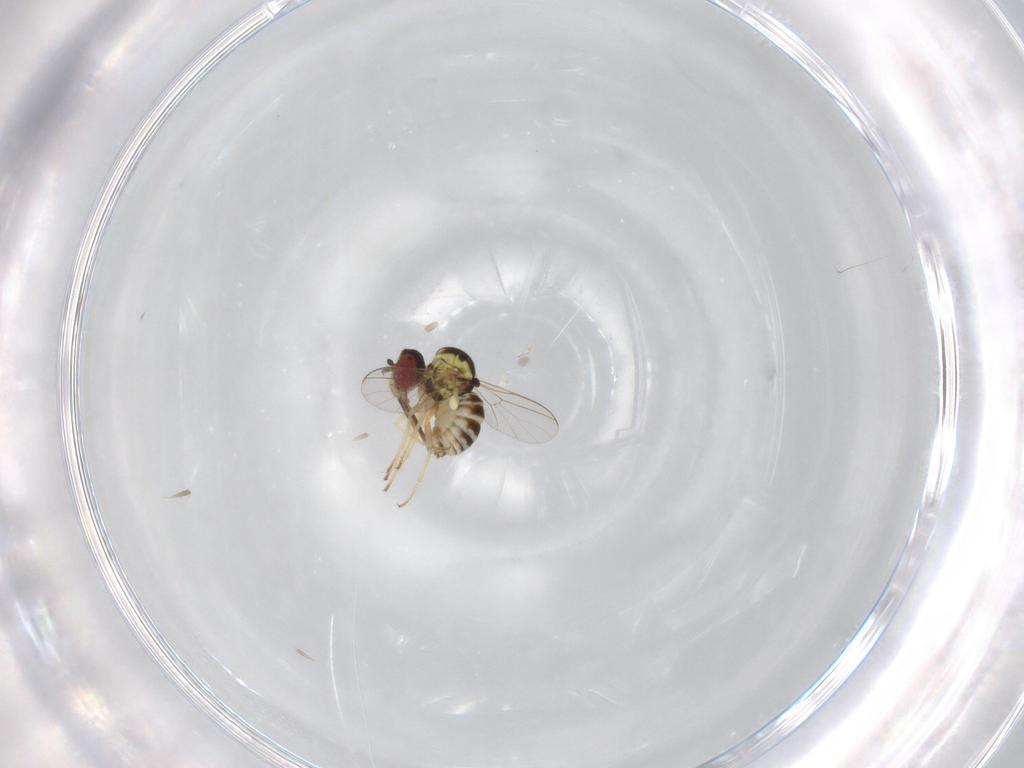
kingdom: Animalia
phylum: Arthropoda
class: Insecta
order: Diptera
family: Bombyliidae
